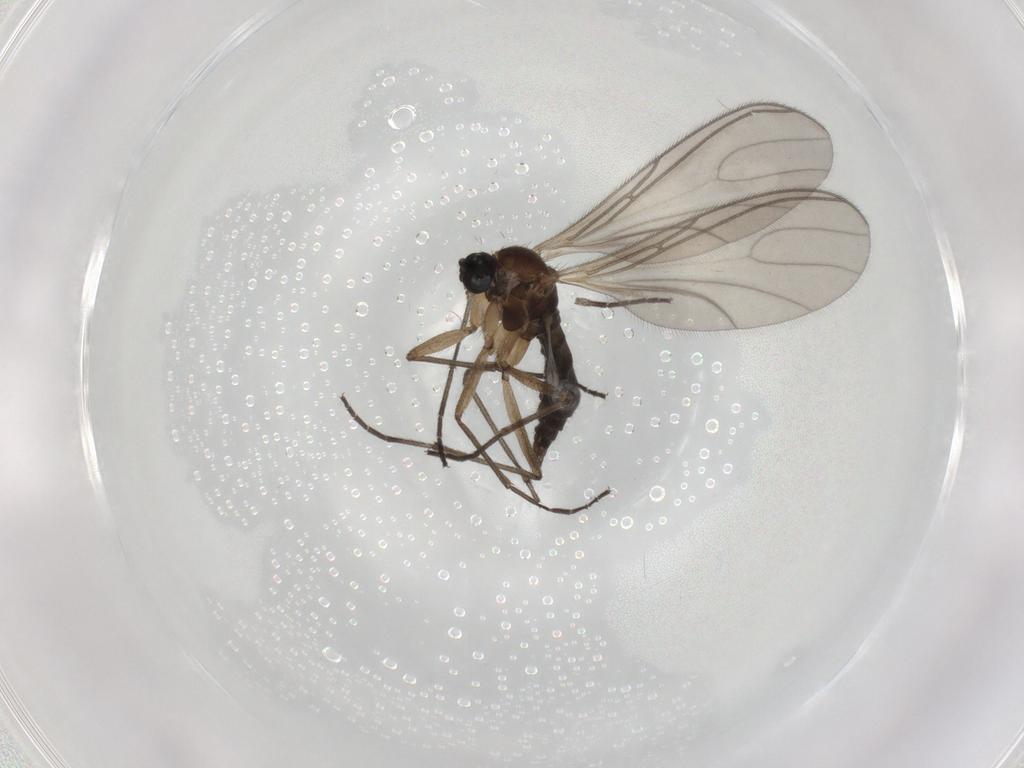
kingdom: Animalia
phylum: Arthropoda
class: Insecta
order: Diptera
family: Sciaridae
